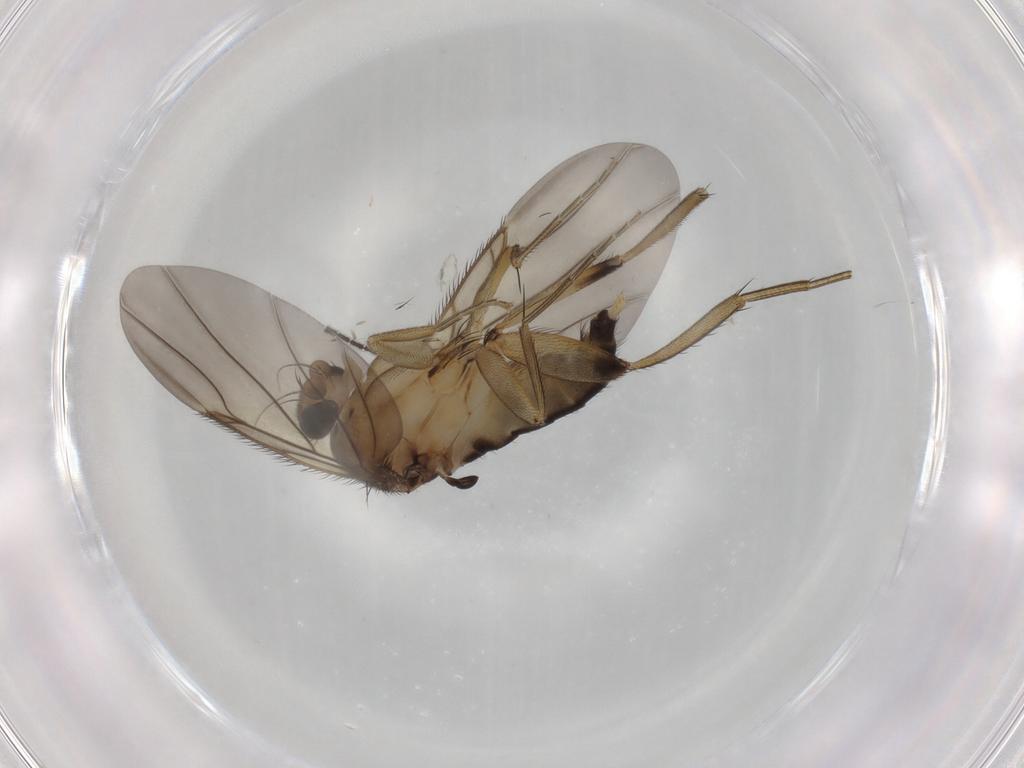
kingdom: Animalia
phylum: Arthropoda
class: Insecta
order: Diptera
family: Phoridae
